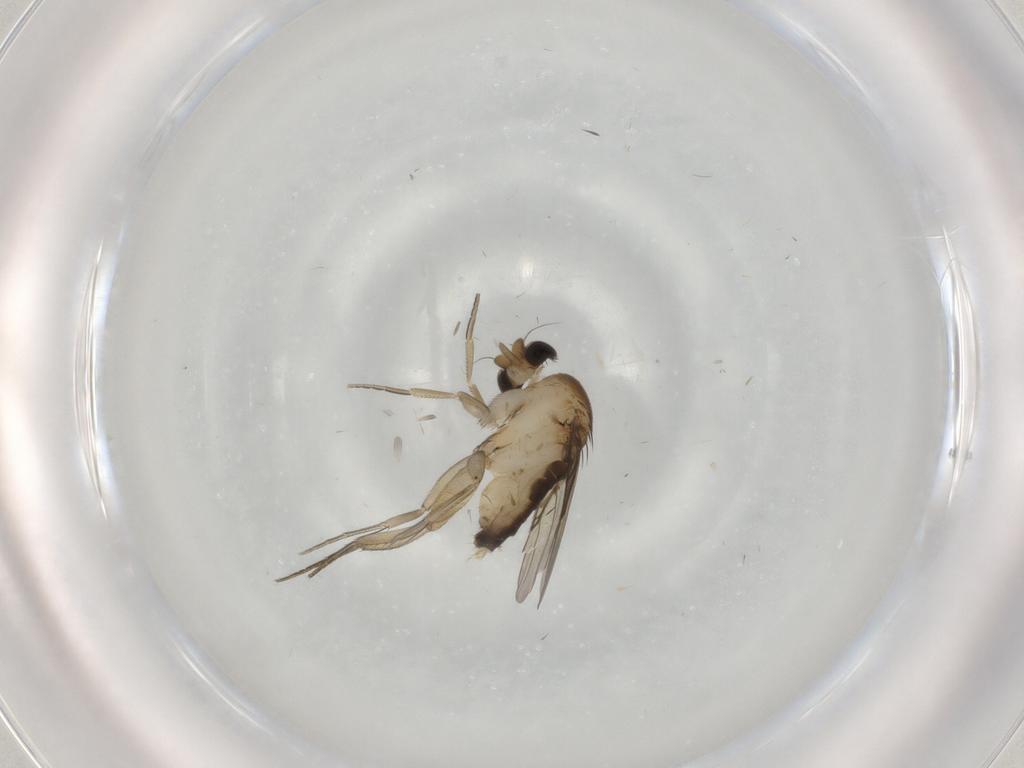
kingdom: Animalia
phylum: Arthropoda
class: Insecta
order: Diptera
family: Phoridae
